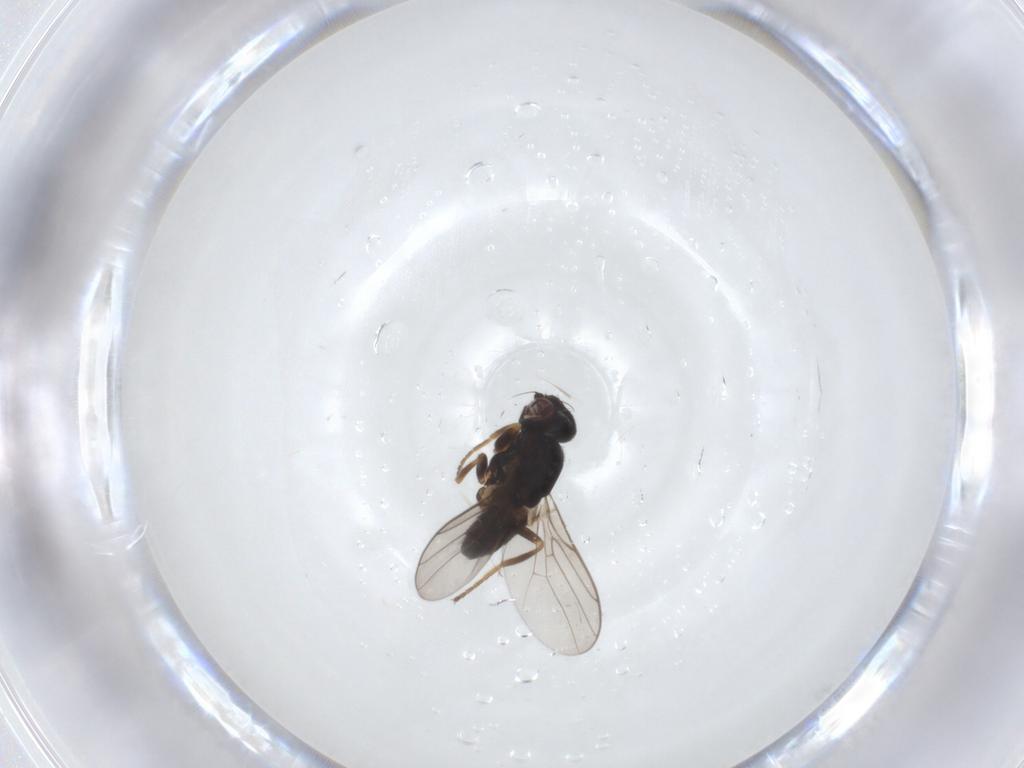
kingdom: Animalia
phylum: Arthropoda
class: Insecta
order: Diptera
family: Chloropidae
